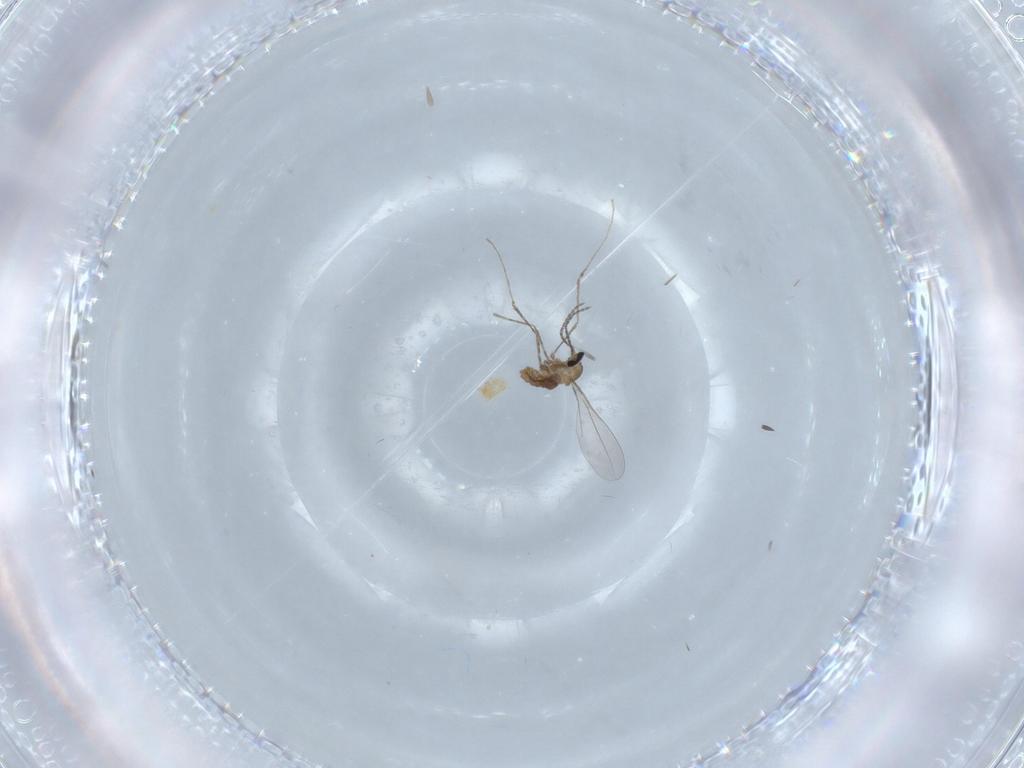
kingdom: Animalia
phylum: Arthropoda
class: Insecta
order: Diptera
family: Cecidomyiidae
